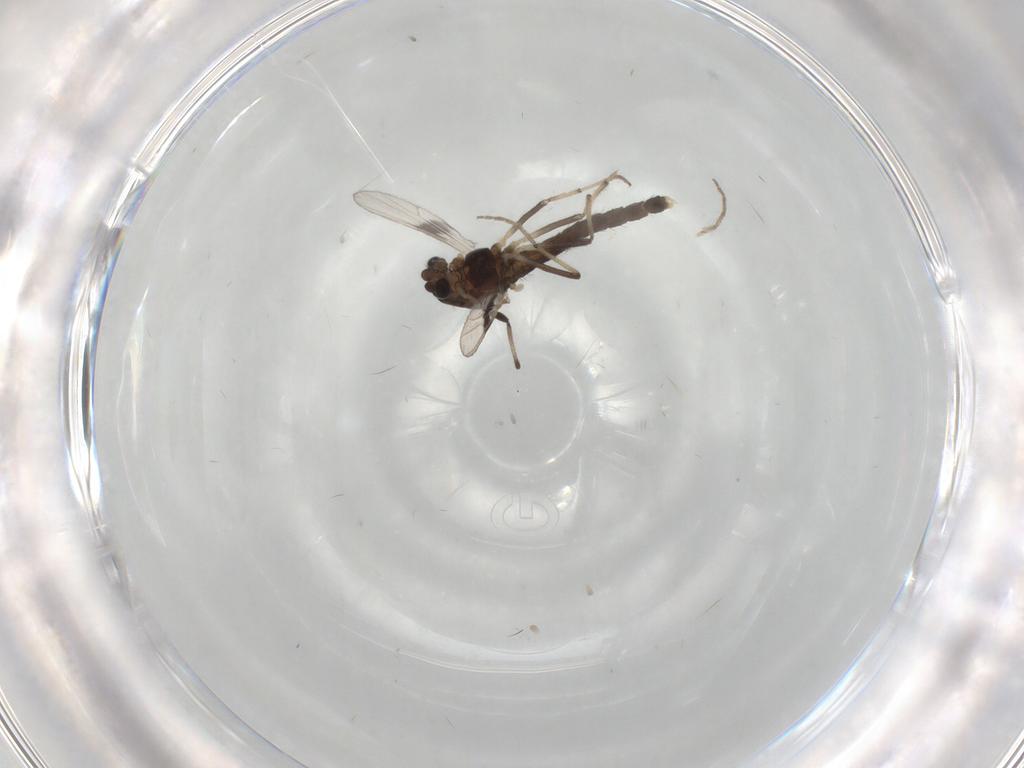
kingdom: Animalia
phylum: Arthropoda
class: Insecta
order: Diptera
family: Chironomidae
